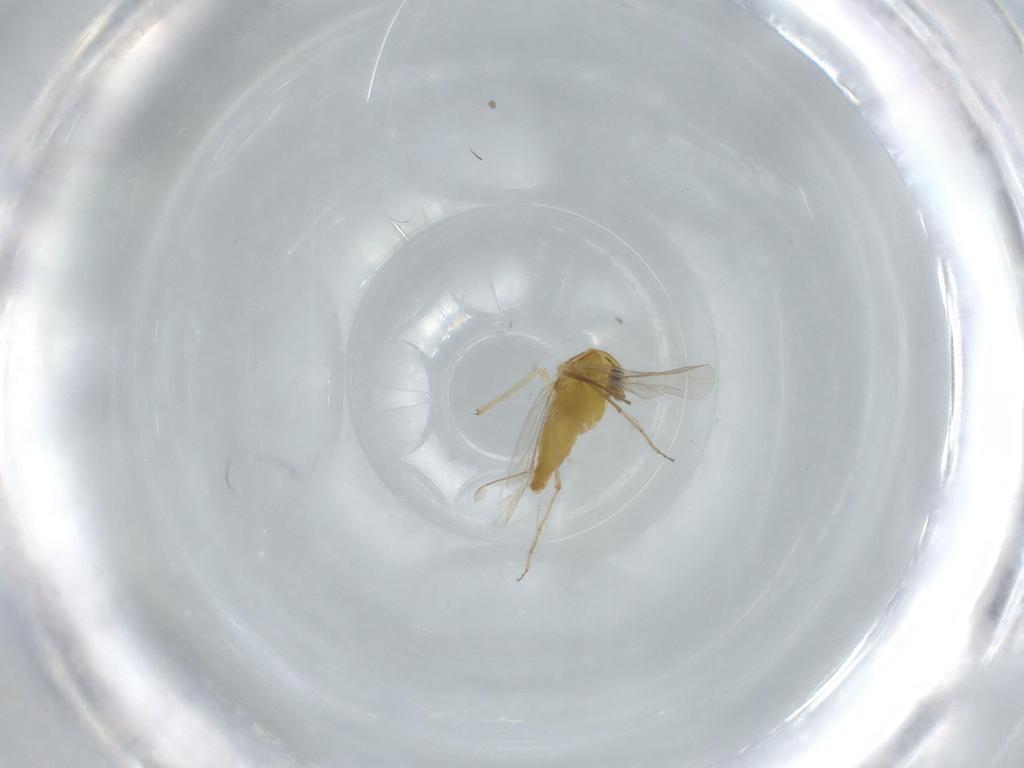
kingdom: Animalia
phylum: Arthropoda
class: Insecta
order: Diptera
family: Chironomidae
